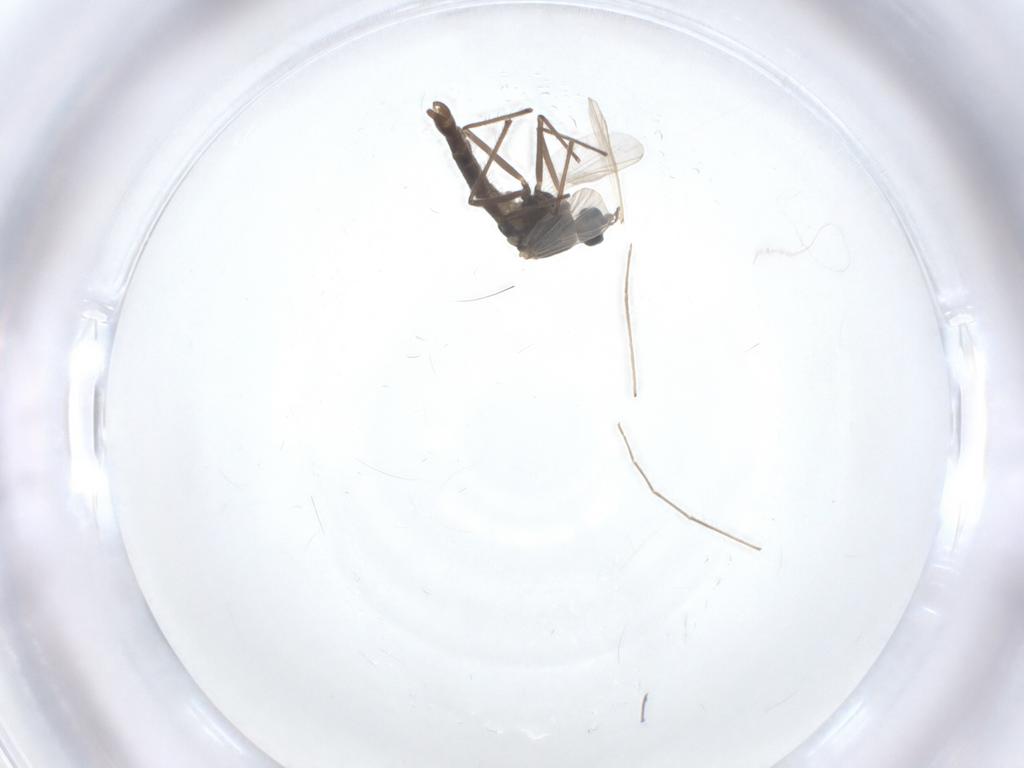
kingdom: Animalia
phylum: Arthropoda
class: Insecta
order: Diptera
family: Chironomidae
